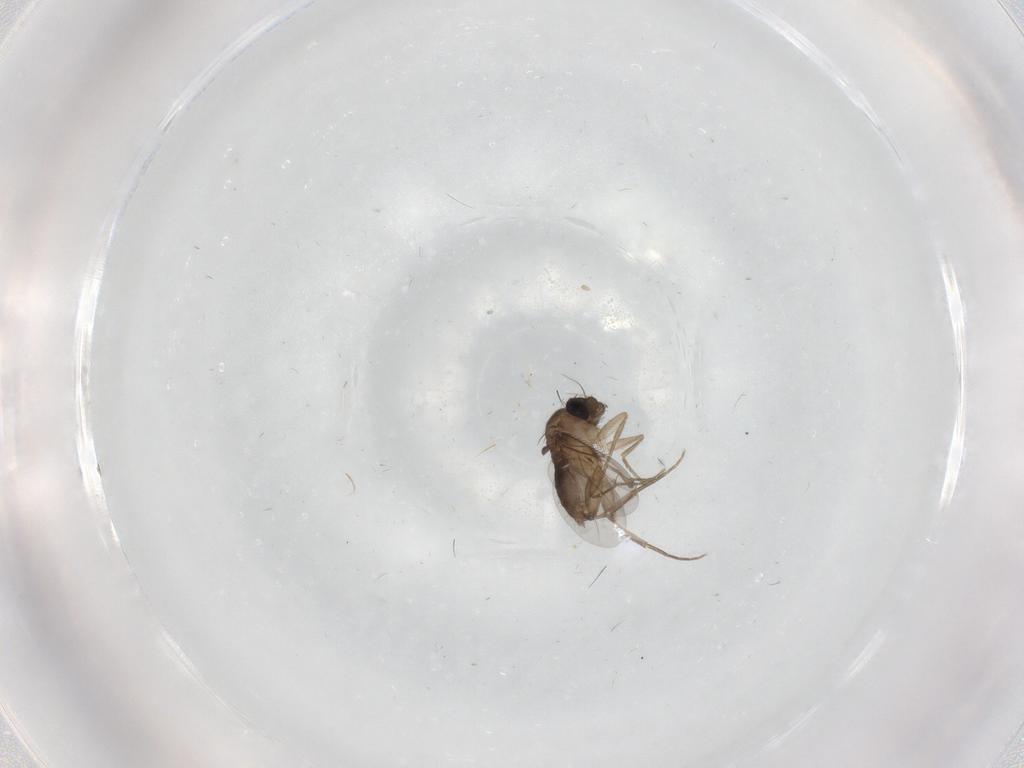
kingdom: Animalia
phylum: Arthropoda
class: Insecta
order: Diptera
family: Phoridae
